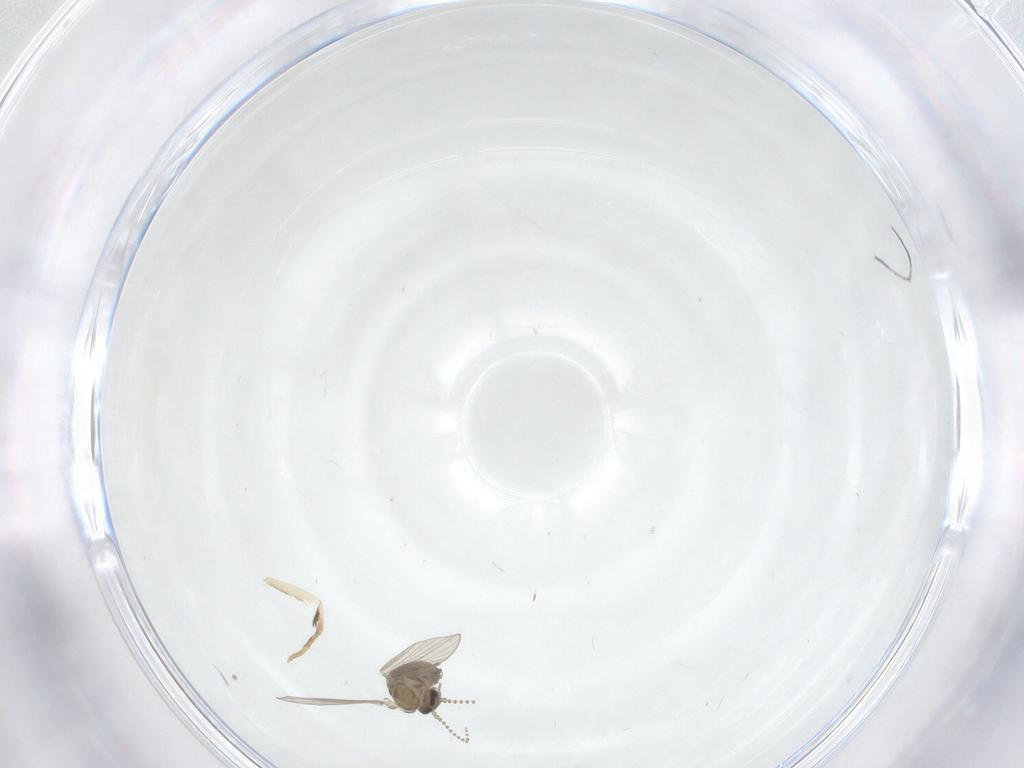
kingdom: Animalia
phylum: Arthropoda
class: Insecta
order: Diptera
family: Psychodidae
